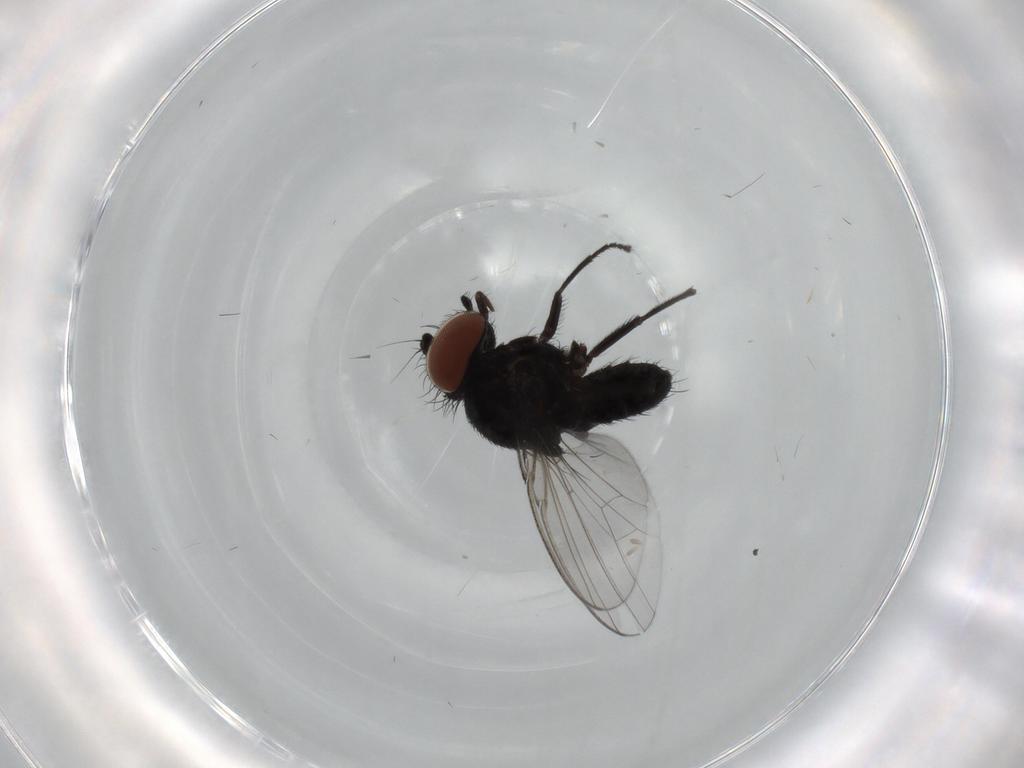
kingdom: Animalia
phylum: Arthropoda
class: Insecta
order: Diptera
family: Milichiidae
